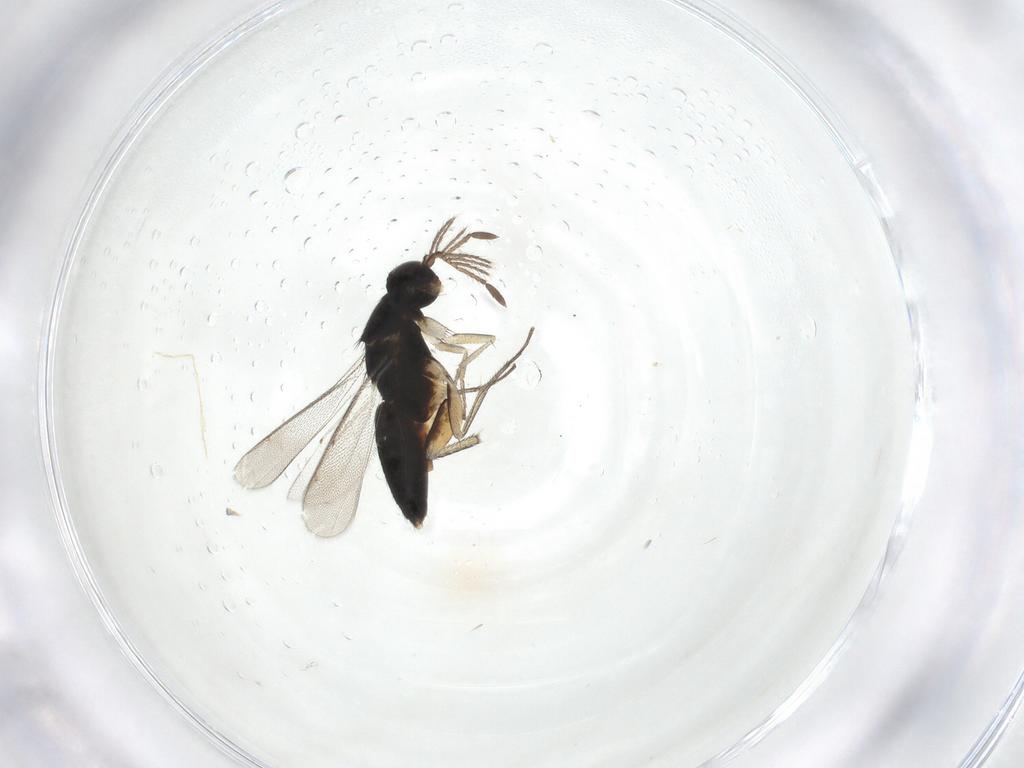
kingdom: Animalia
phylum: Arthropoda
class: Insecta
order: Hymenoptera
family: Eulophidae
